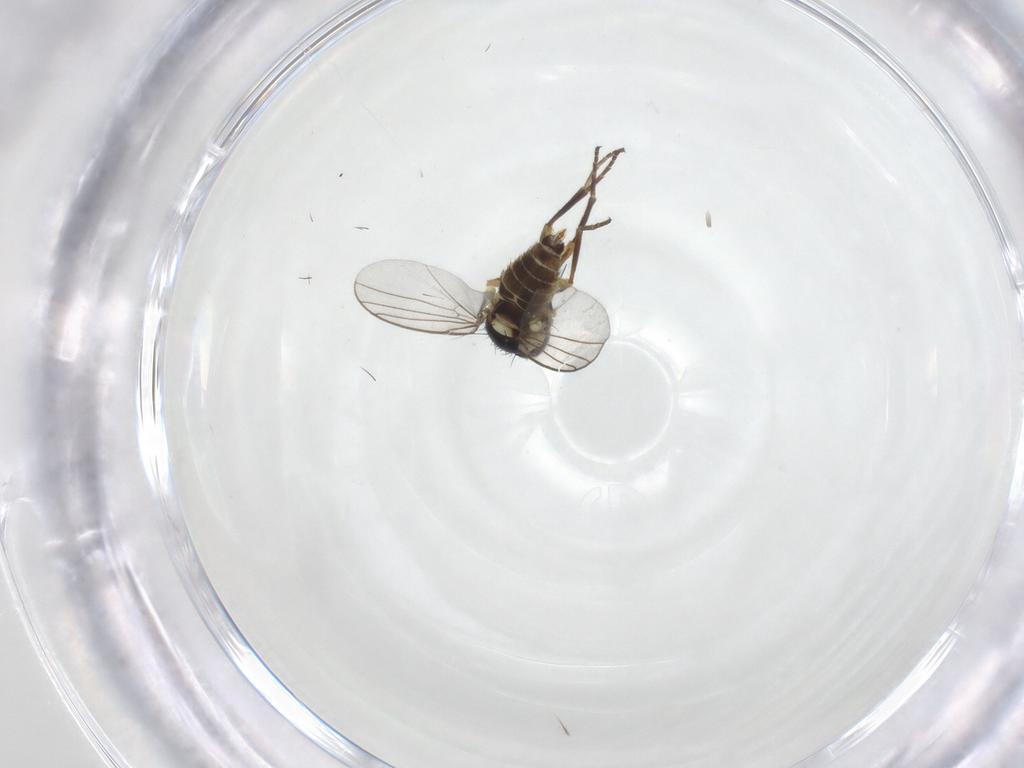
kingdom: Animalia
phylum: Arthropoda
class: Insecta
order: Diptera
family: Agromyzidae
